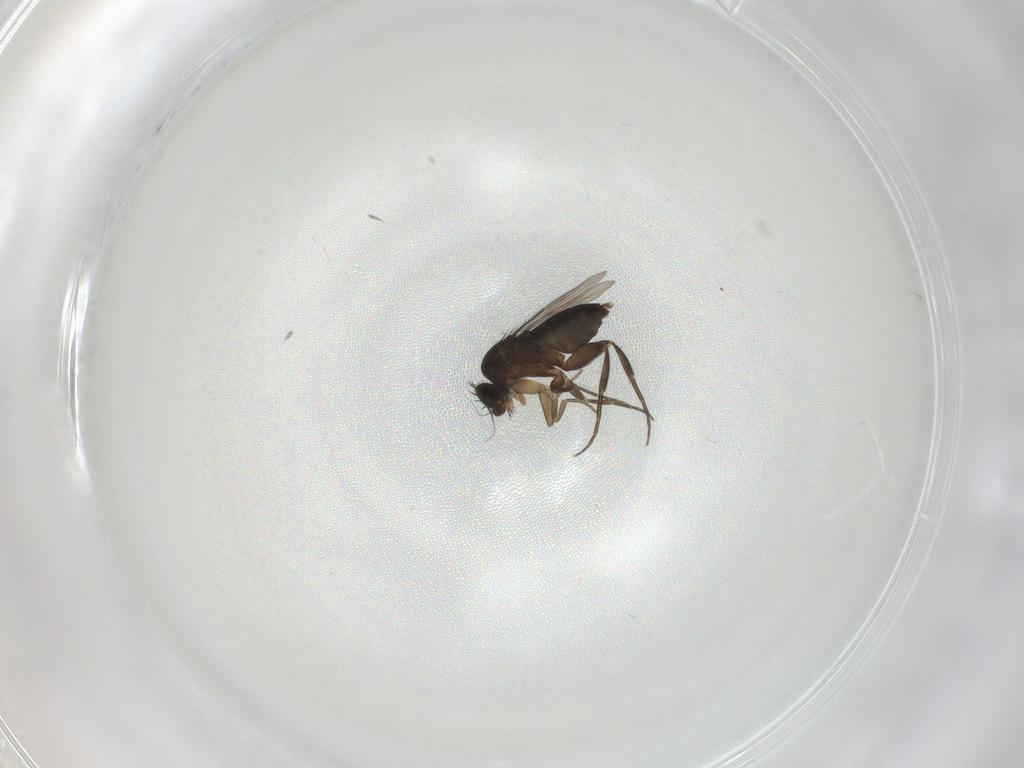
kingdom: Animalia
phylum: Arthropoda
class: Insecta
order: Diptera
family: Phoridae
